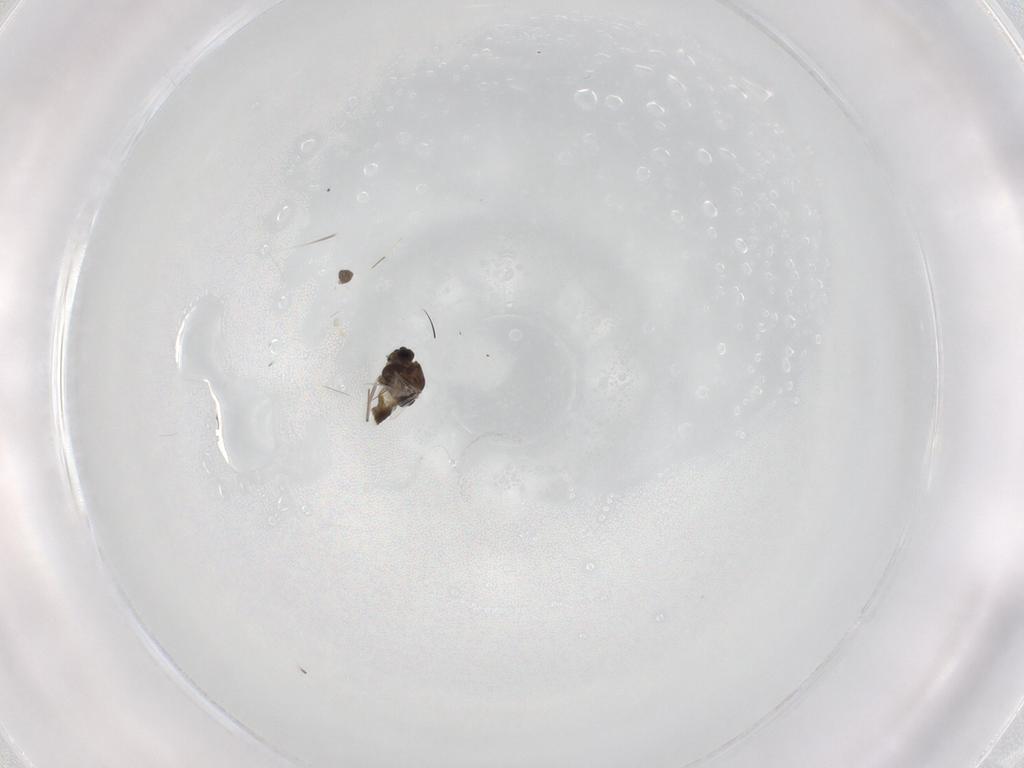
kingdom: Animalia
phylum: Arthropoda
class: Insecta
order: Diptera
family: Chironomidae
